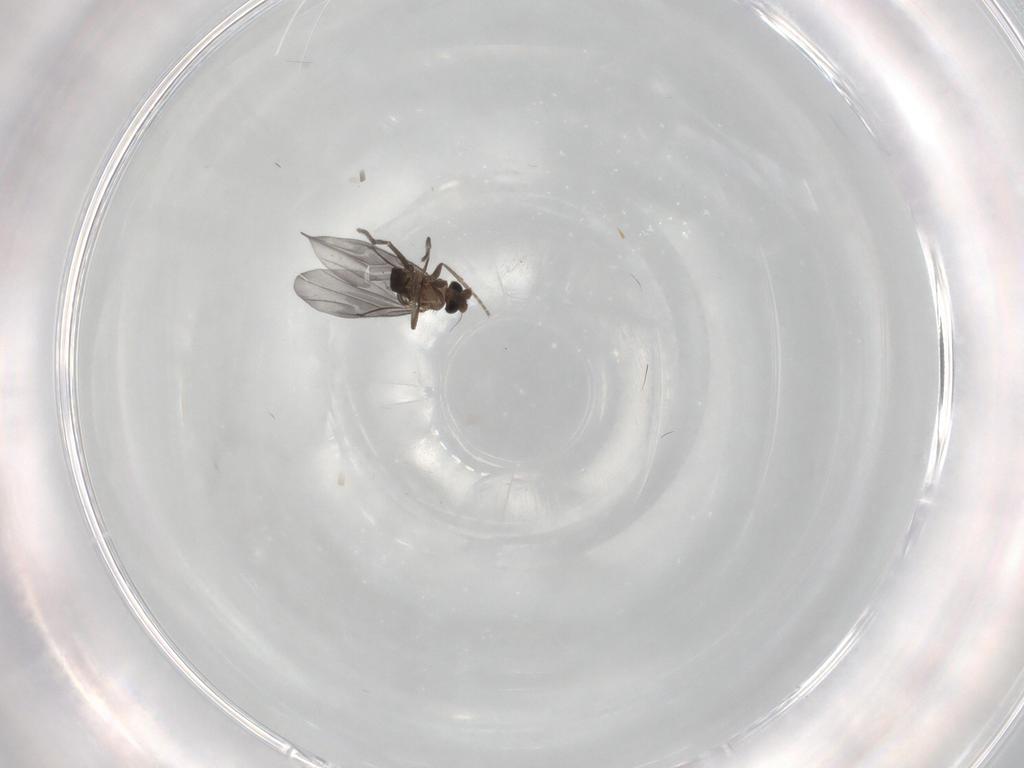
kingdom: Animalia
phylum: Arthropoda
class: Insecta
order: Diptera
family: Phoridae
